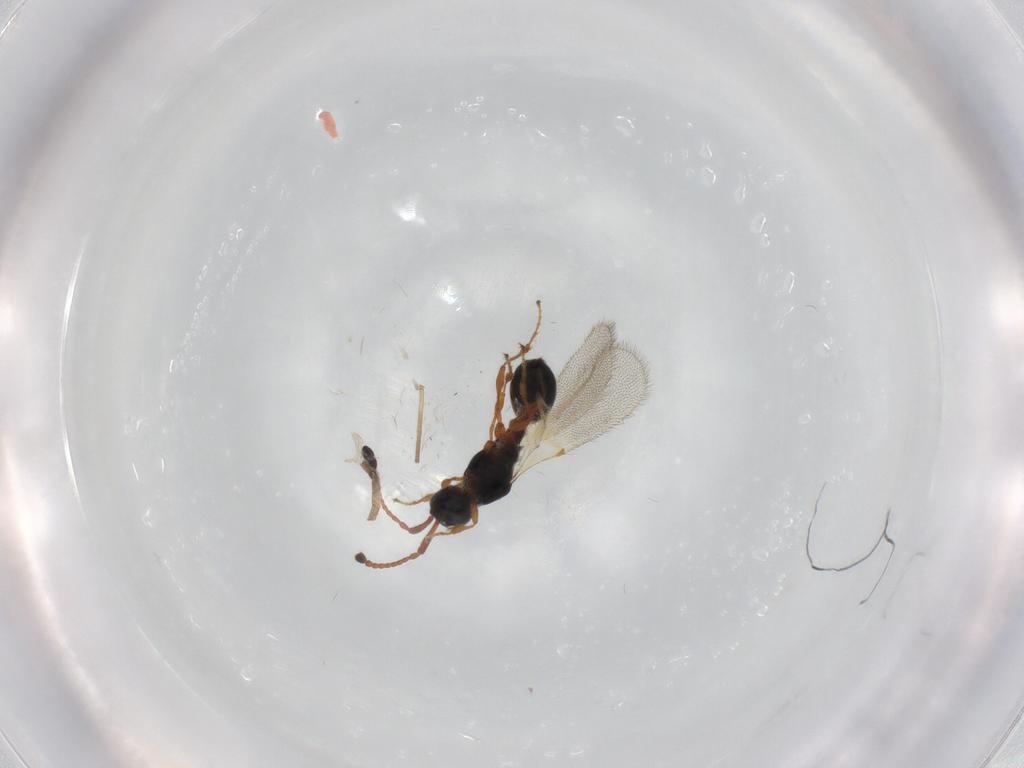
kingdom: Animalia
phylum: Arthropoda
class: Insecta
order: Hymenoptera
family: Diapriidae
